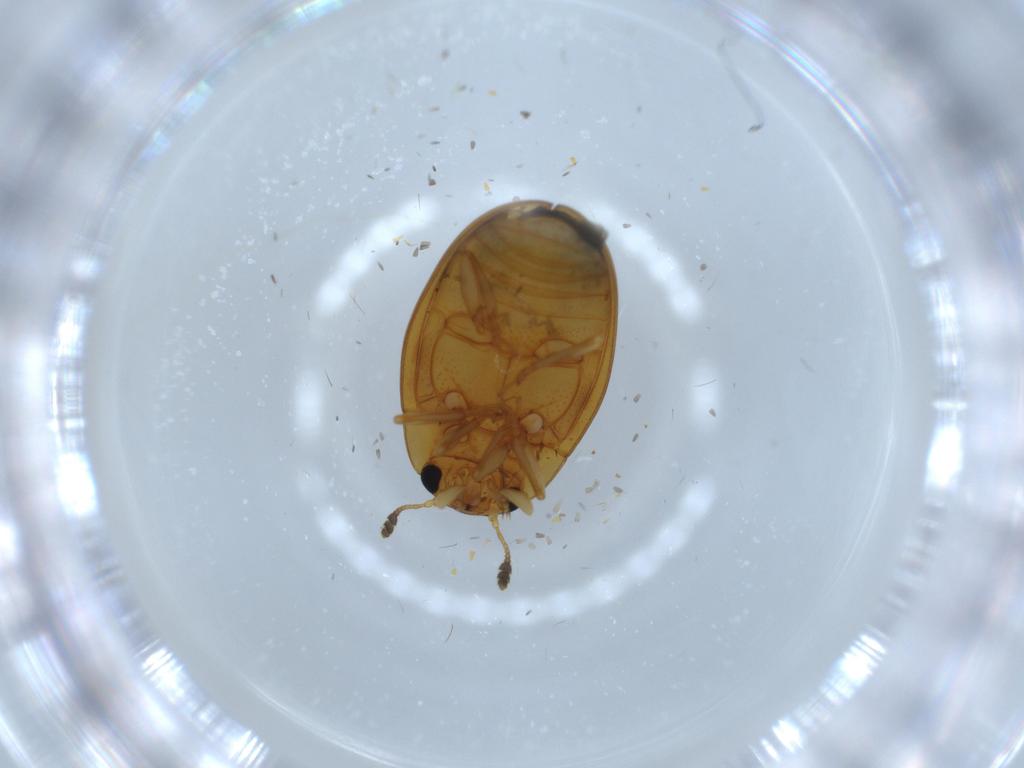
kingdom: Animalia
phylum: Arthropoda
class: Insecta
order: Coleoptera
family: Erotylidae
